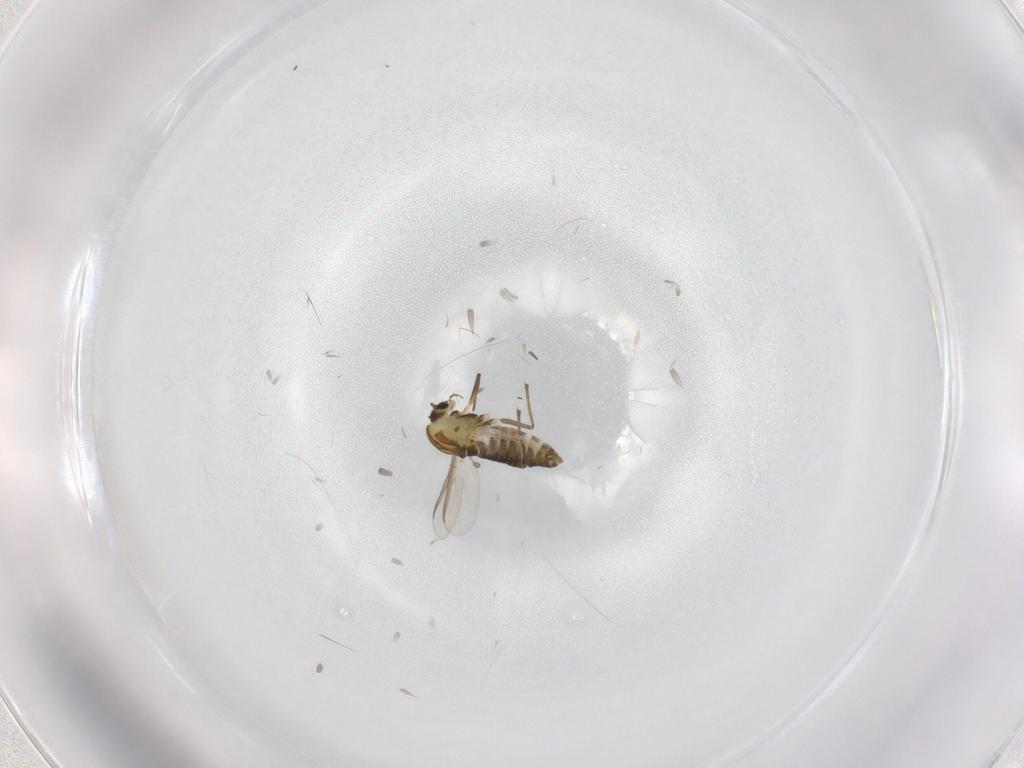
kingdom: Animalia
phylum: Arthropoda
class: Insecta
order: Diptera
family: Chironomidae
